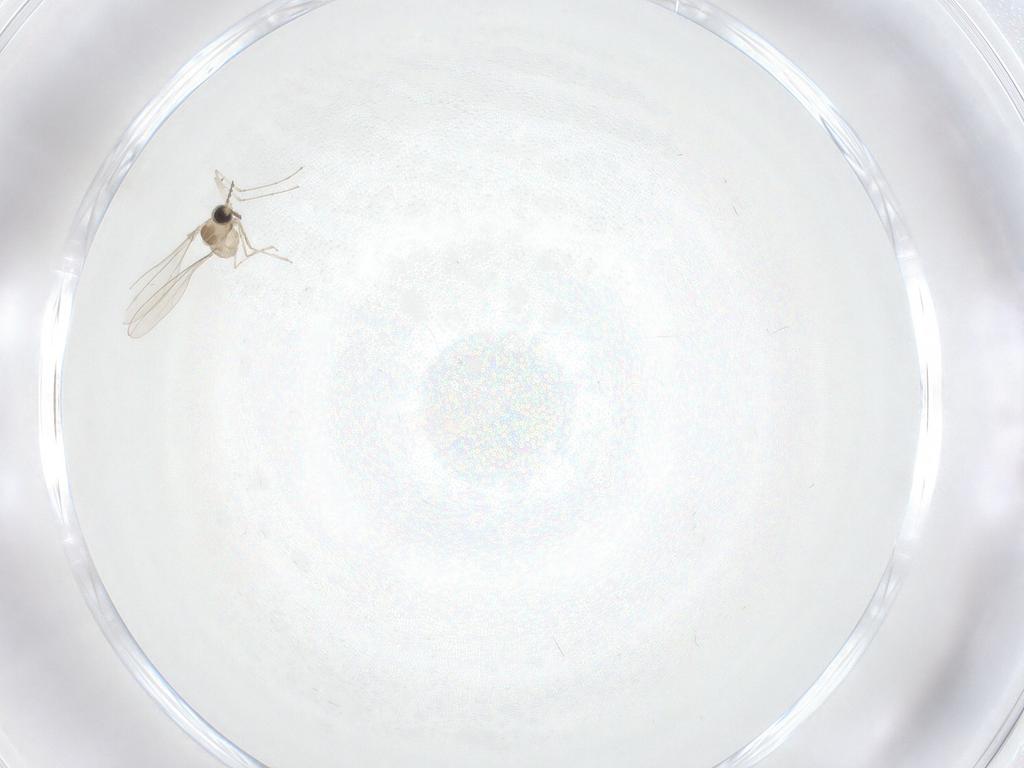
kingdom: Animalia
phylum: Arthropoda
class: Insecta
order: Diptera
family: Cecidomyiidae
